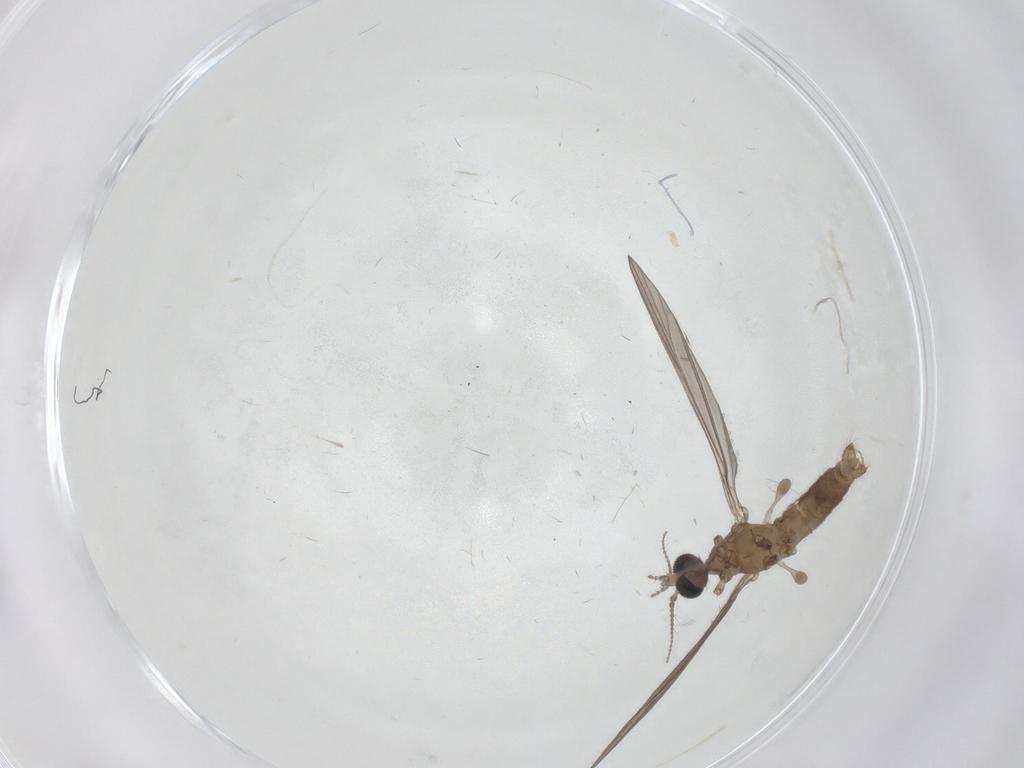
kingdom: Animalia
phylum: Arthropoda
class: Insecta
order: Diptera
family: Limoniidae
